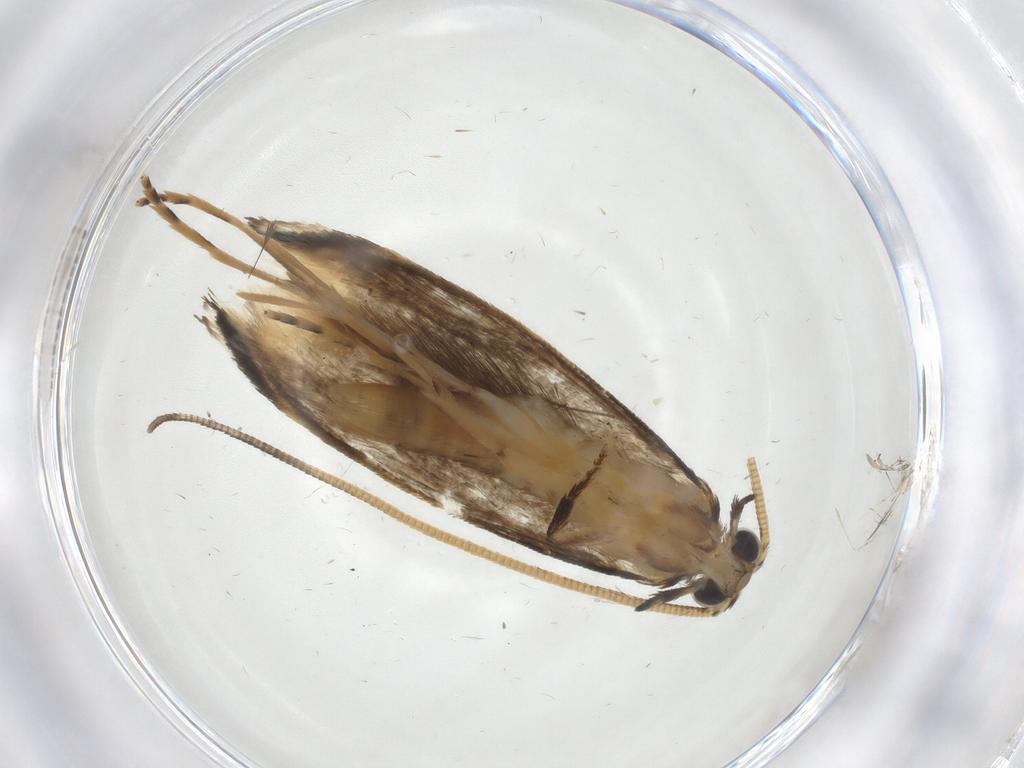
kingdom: Animalia
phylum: Arthropoda
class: Insecta
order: Lepidoptera
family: Tineidae
